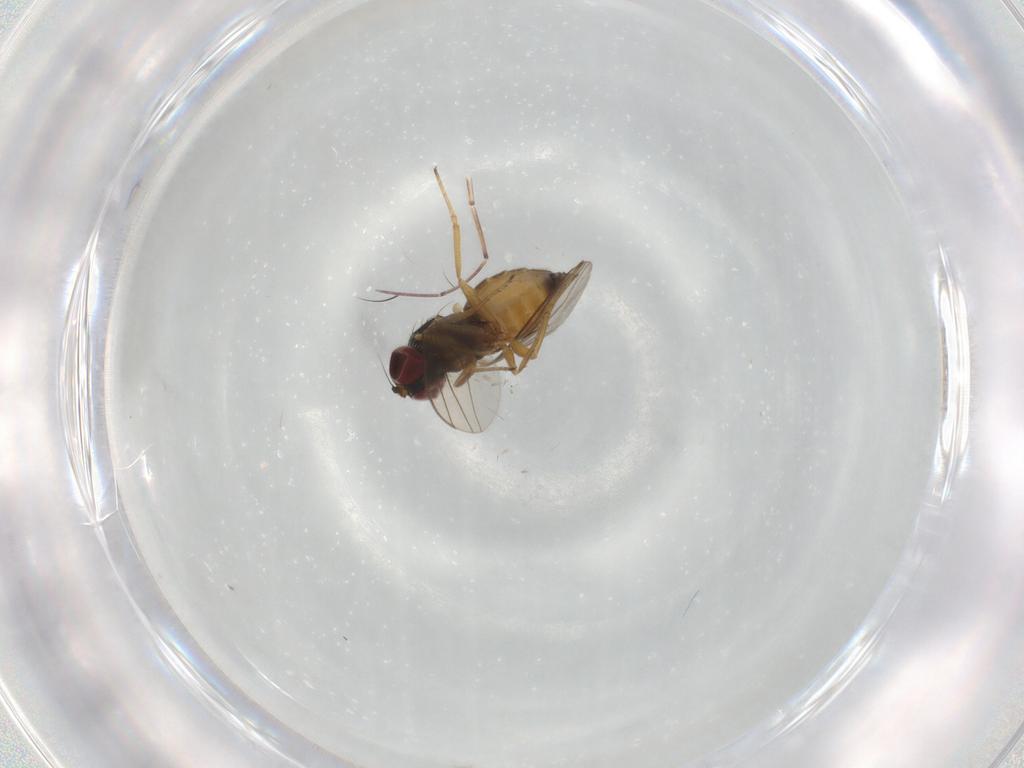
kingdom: Animalia
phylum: Arthropoda
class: Insecta
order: Diptera
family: Dolichopodidae
